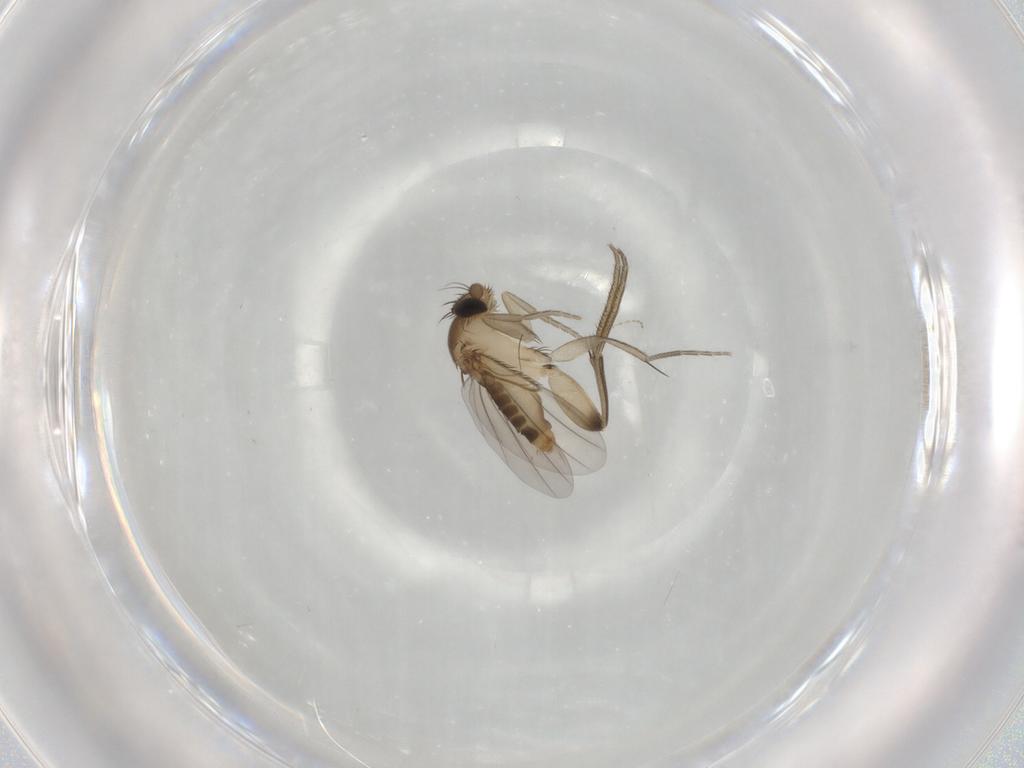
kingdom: Animalia
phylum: Arthropoda
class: Insecta
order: Diptera
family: Phoridae
